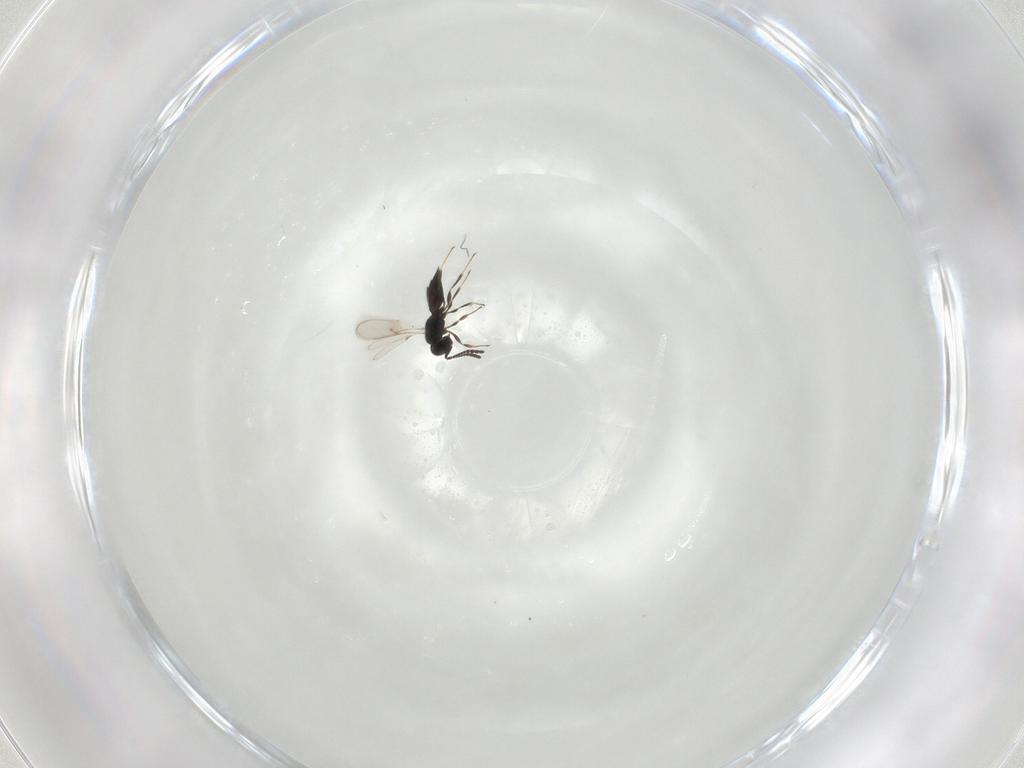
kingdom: Animalia
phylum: Arthropoda
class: Insecta
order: Hymenoptera
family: Scelionidae
